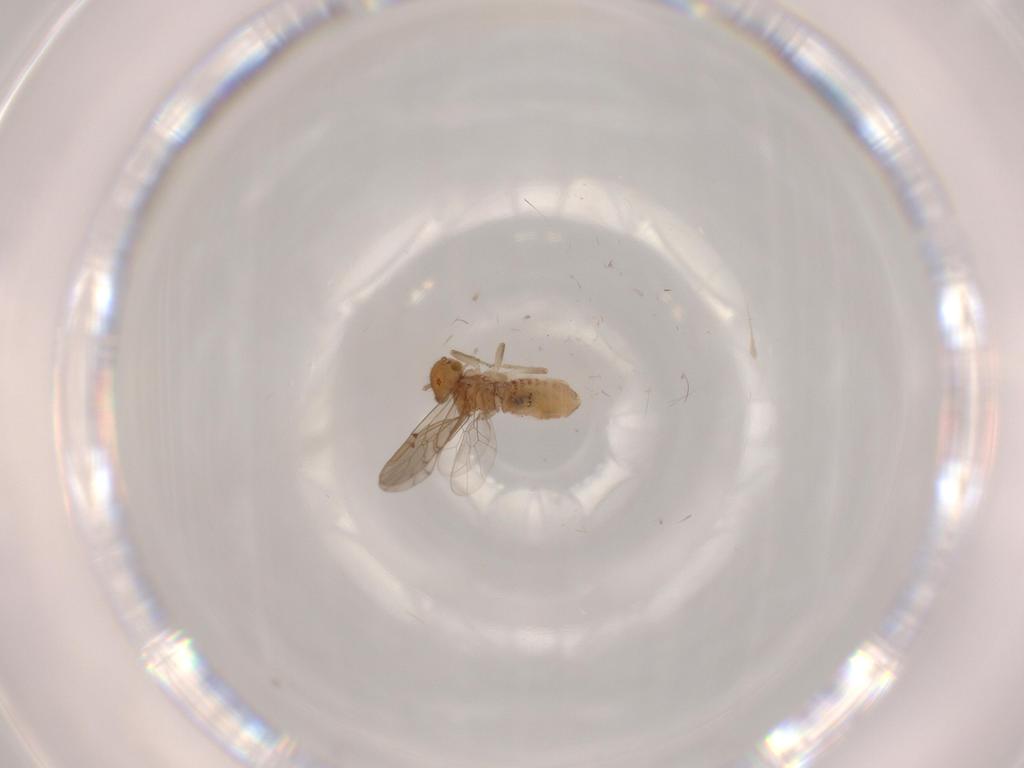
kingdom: Animalia
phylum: Arthropoda
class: Insecta
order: Psocodea
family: Ectopsocidae
